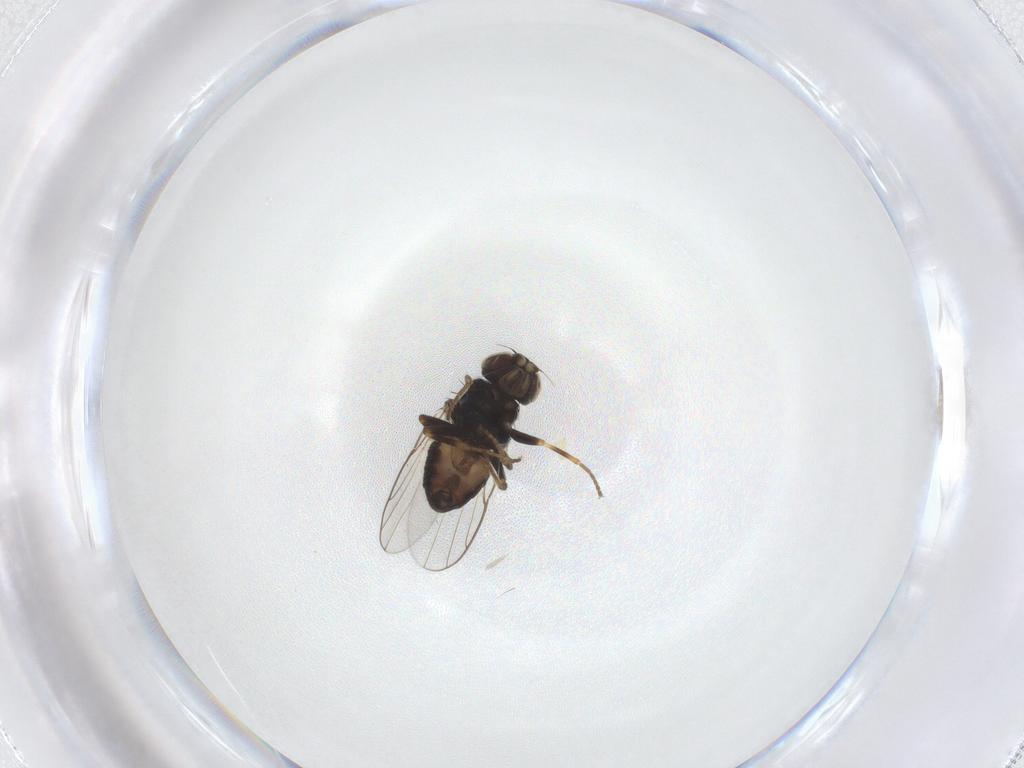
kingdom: Animalia
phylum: Arthropoda
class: Insecta
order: Diptera
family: Chloropidae
